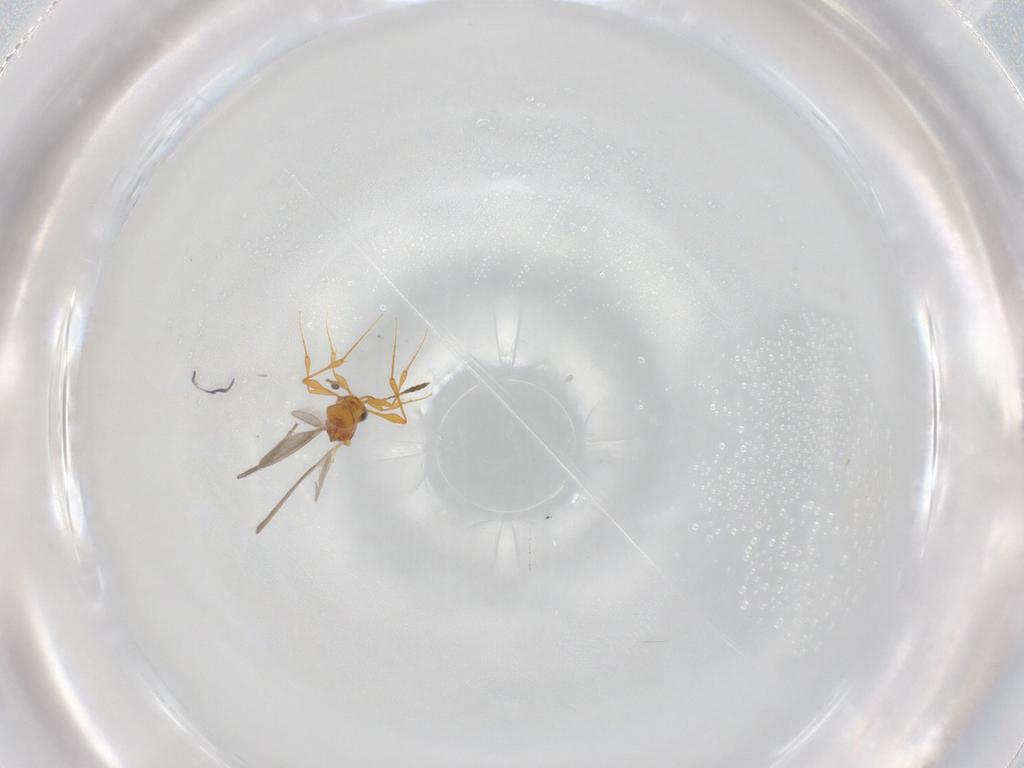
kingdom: Animalia
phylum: Arthropoda
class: Insecta
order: Hymenoptera
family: Platygastridae
